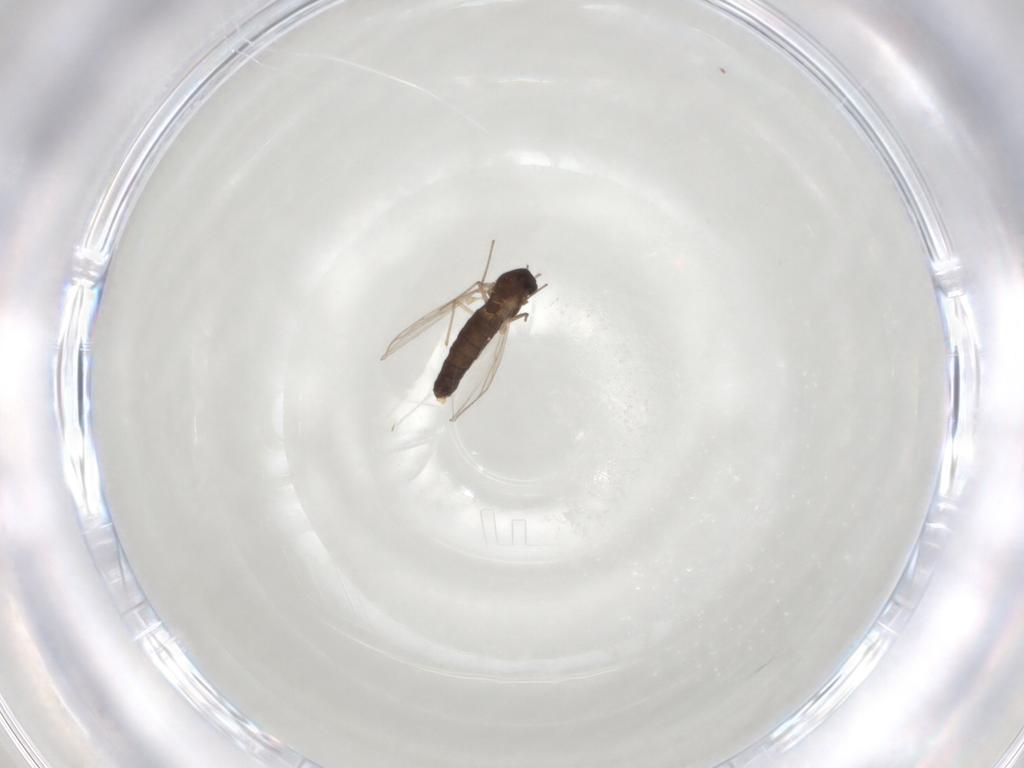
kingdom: Animalia
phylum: Arthropoda
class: Insecta
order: Diptera
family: Chironomidae
